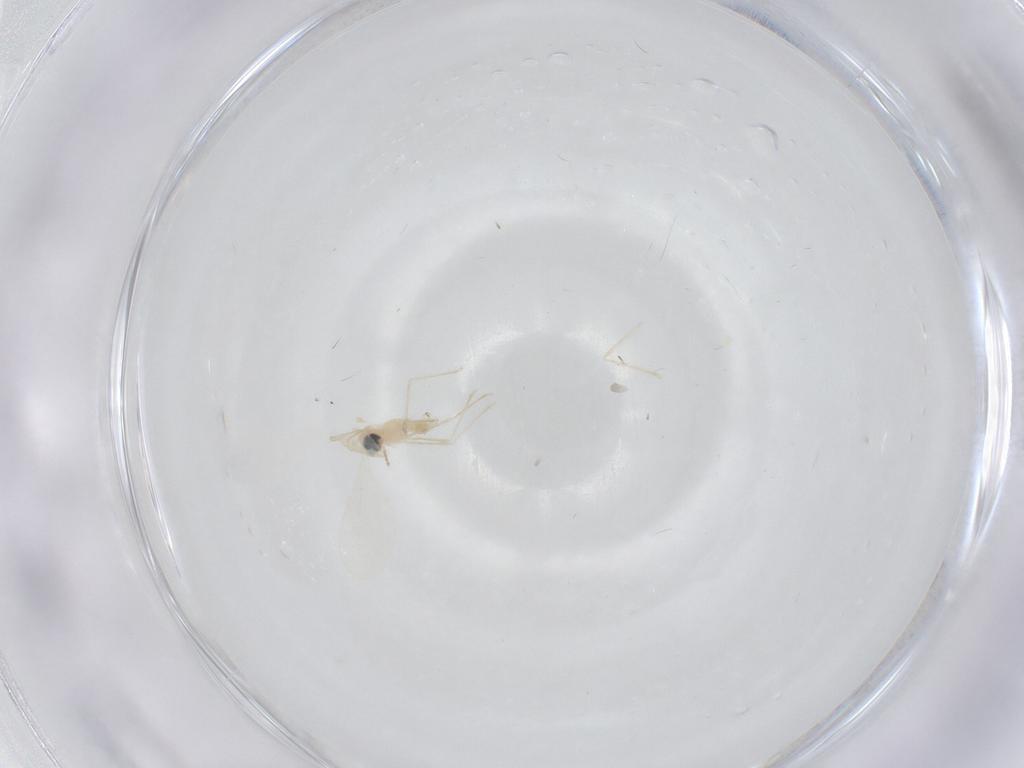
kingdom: Animalia
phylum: Arthropoda
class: Insecta
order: Diptera
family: Cecidomyiidae
